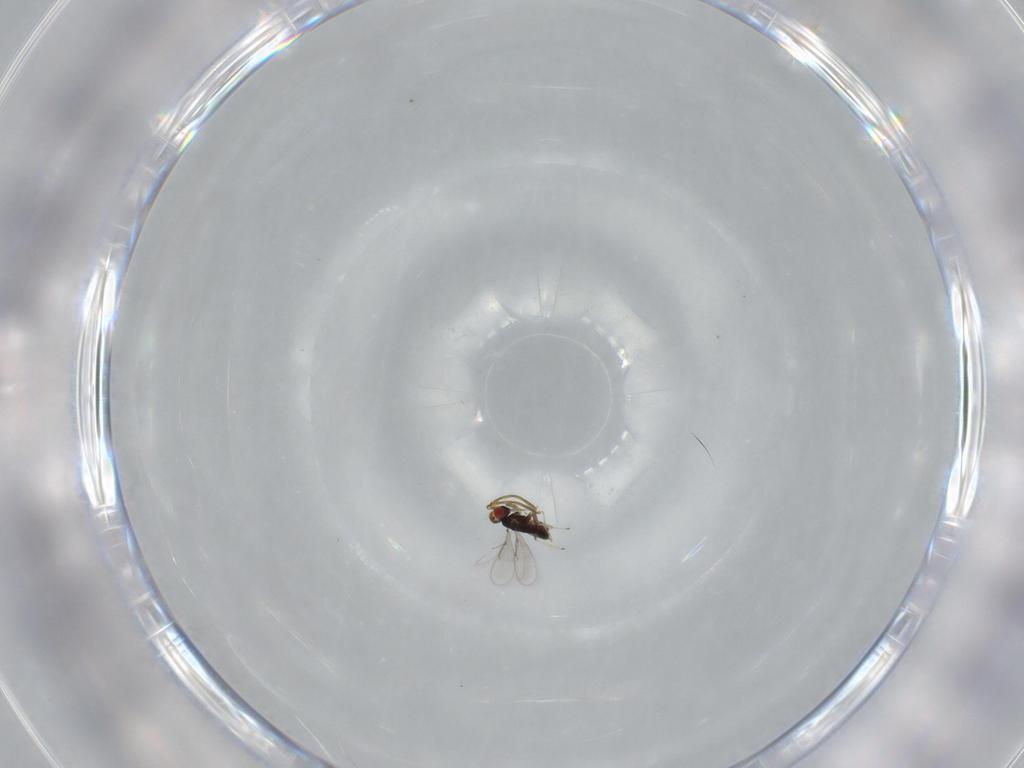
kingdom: Animalia
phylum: Arthropoda
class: Insecta
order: Hymenoptera
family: Azotidae
